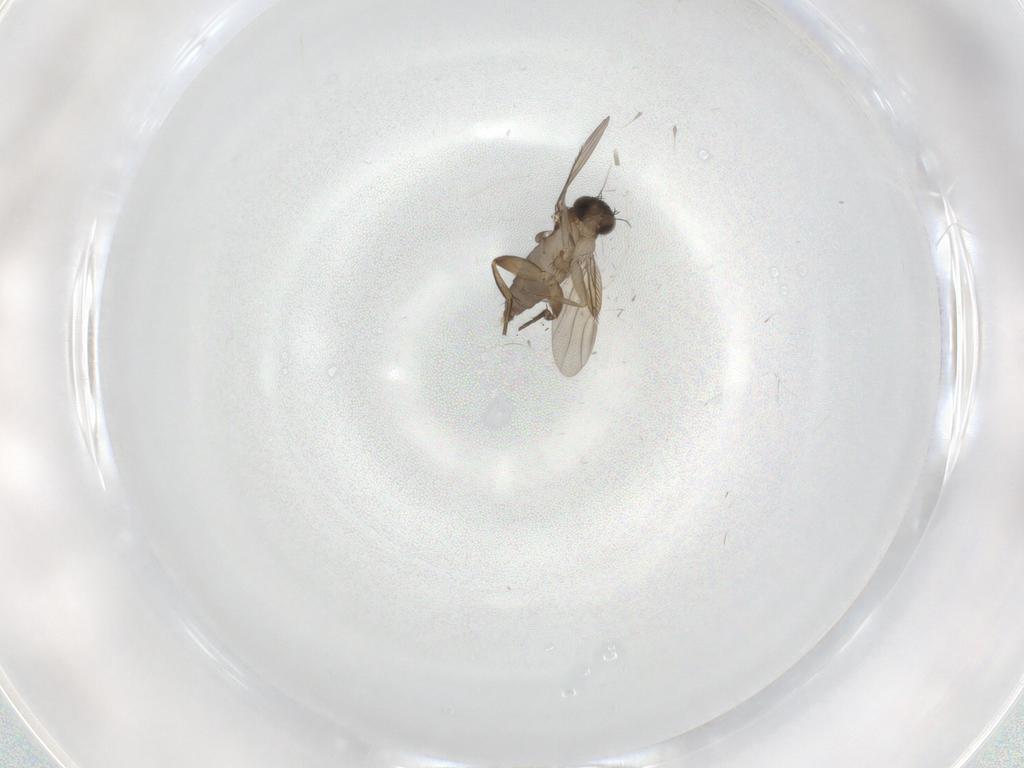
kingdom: Animalia
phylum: Arthropoda
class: Insecta
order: Diptera
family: Phoridae
